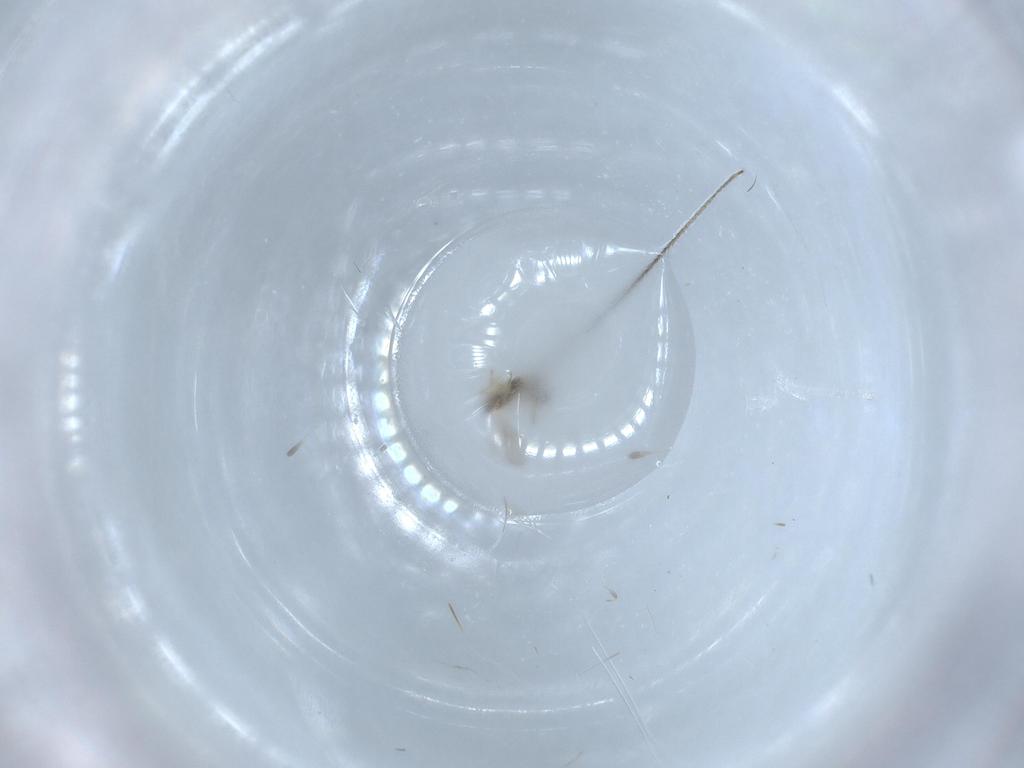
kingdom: Animalia
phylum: Arthropoda
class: Insecta
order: Hymenoptera
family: Aphelinidae
